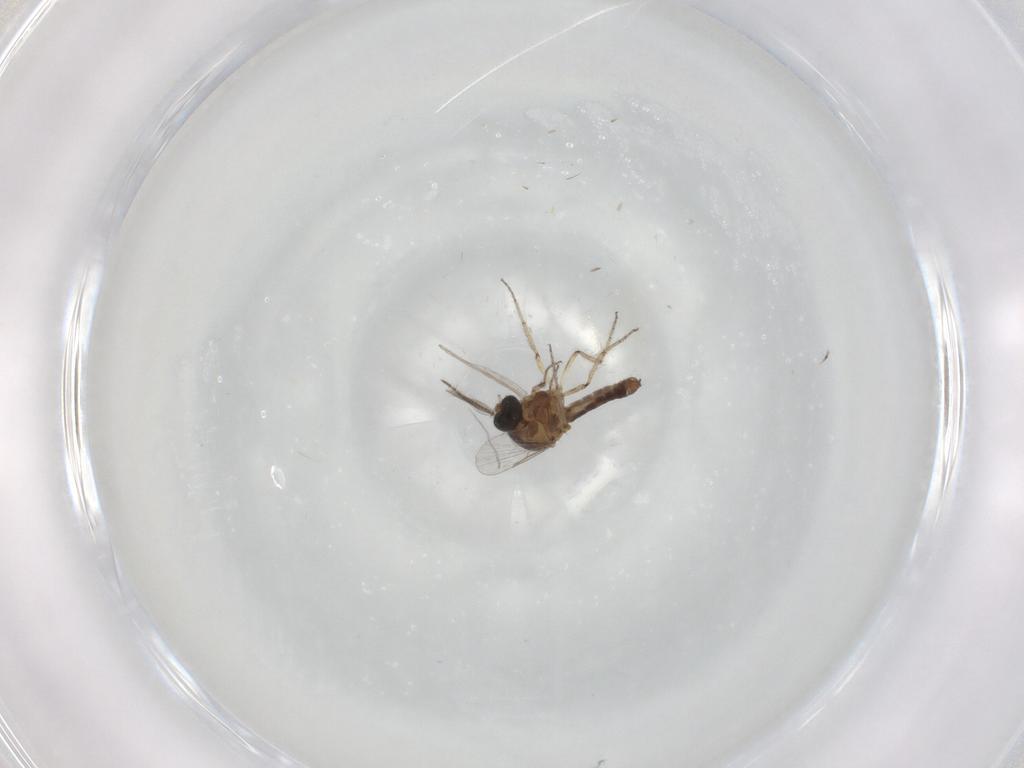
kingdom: Animalia
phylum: Arthropoda
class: Insecta
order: Diptera
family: Ceratopogonidae
